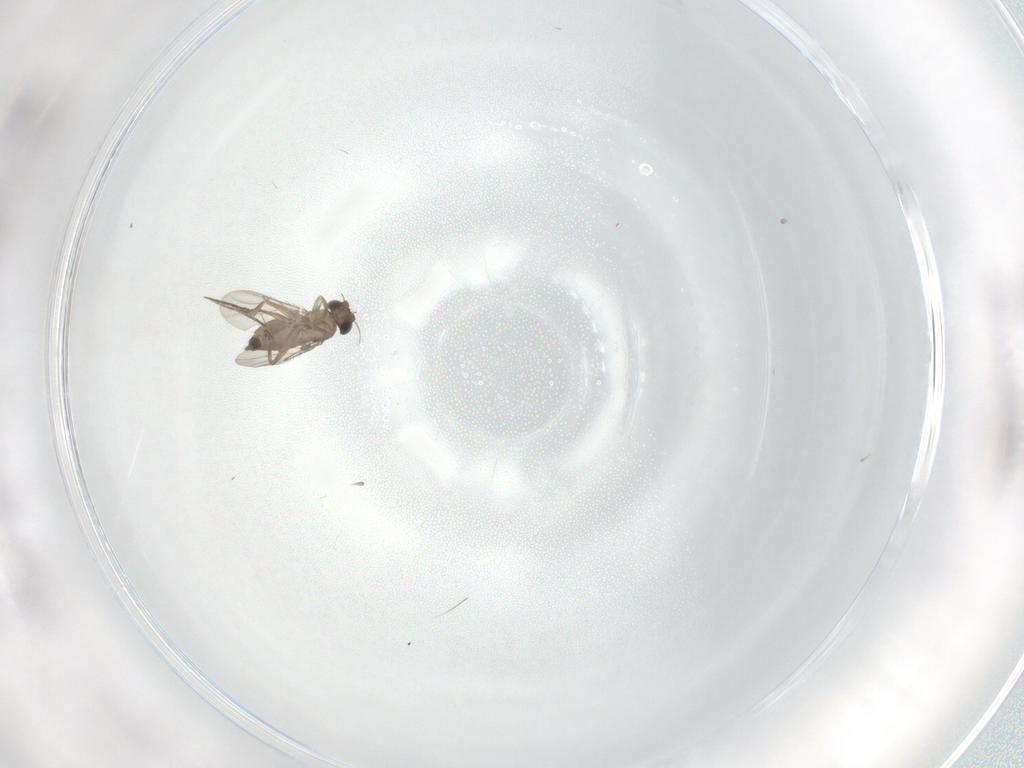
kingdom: Animalia
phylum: Arthropoda
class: Insecta
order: Diptera
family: Phoridae
